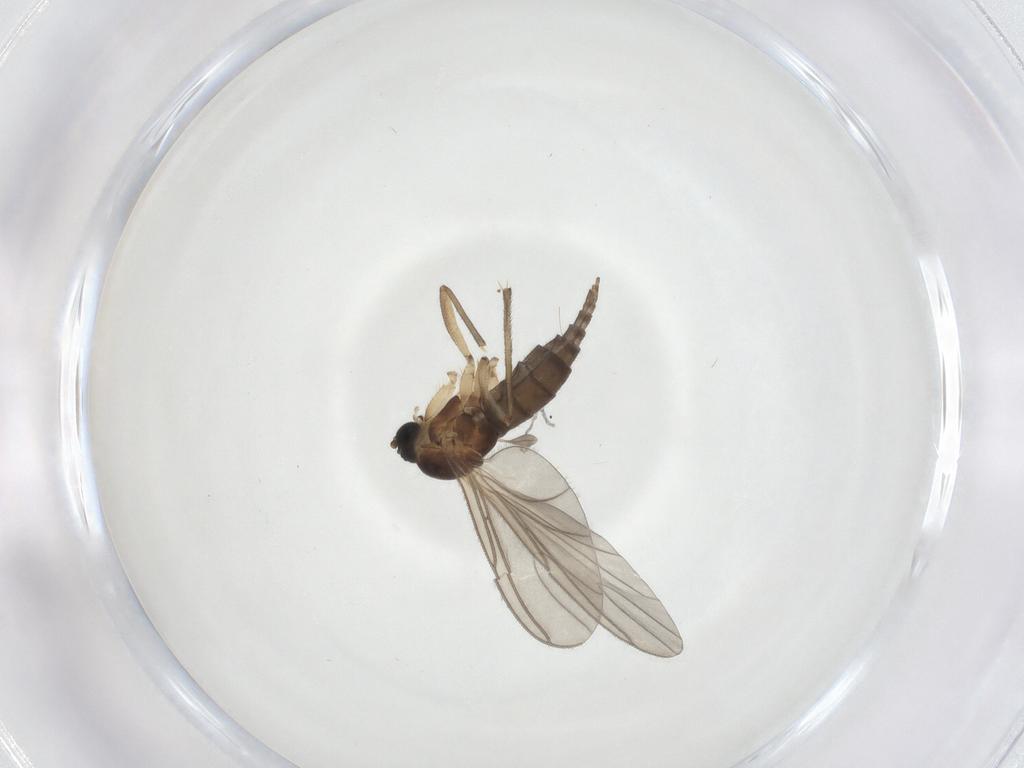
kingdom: Animalia
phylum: Arthropoda
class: Insecta
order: Diptera
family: Sciaridae
